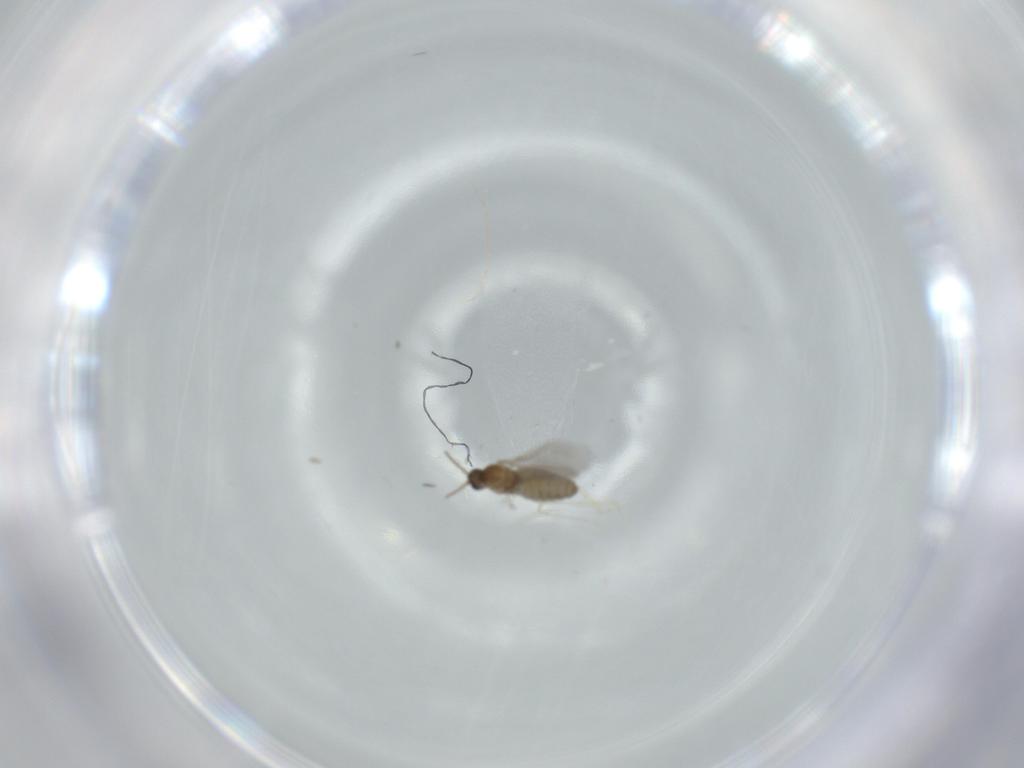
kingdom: Animalia
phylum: Arthropoda
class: Insecta
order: Diptera
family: Cecidomyiidae
